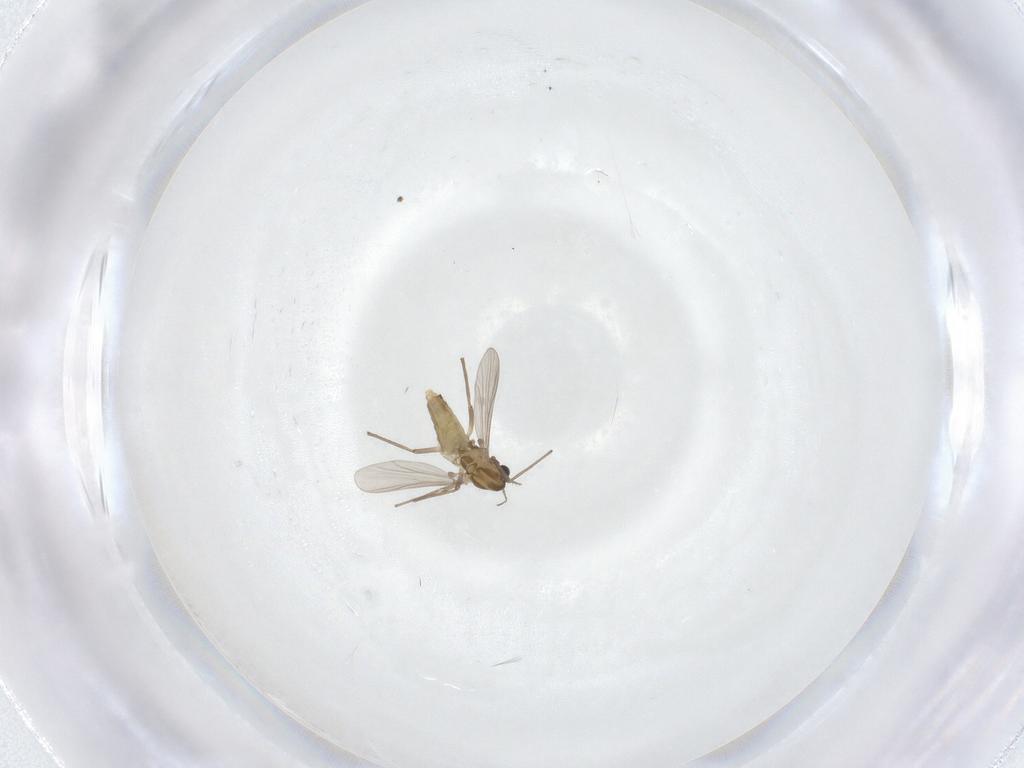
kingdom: Animalia
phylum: Arthropoda
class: Insecta
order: Diptera
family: Chironomidae
